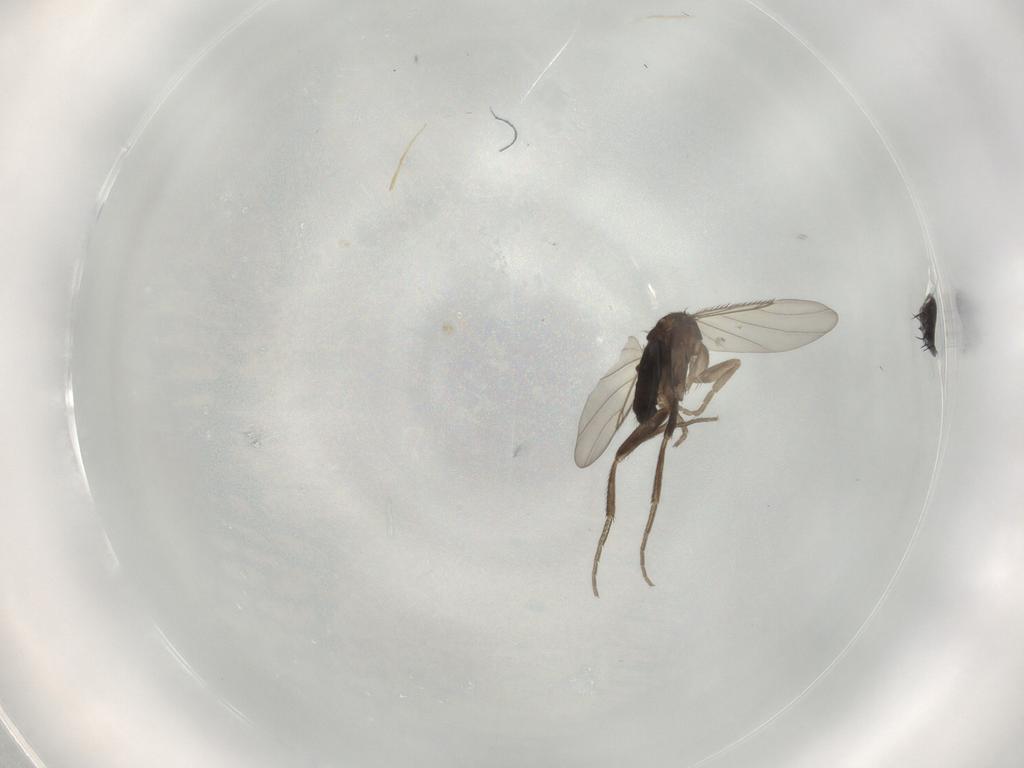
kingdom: Animalia
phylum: Arthropoda
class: Insecta
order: Diptera
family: Phoridae
